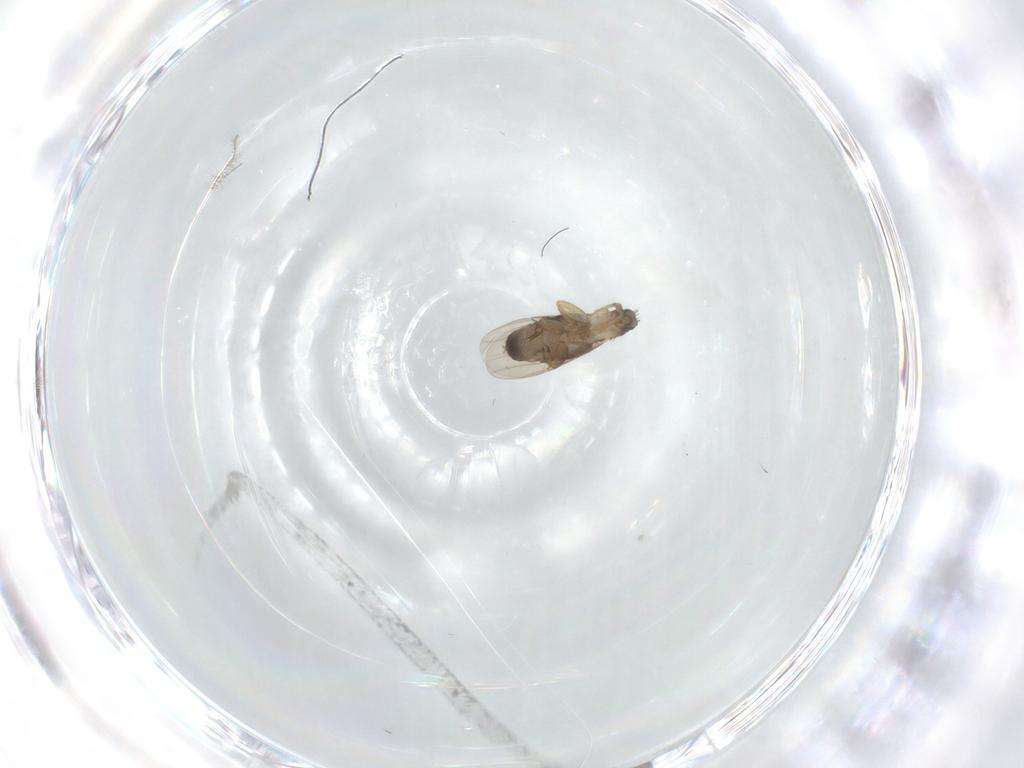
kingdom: Animalia
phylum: Arthropoda
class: Insecta
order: Diptera
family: Phoridae
